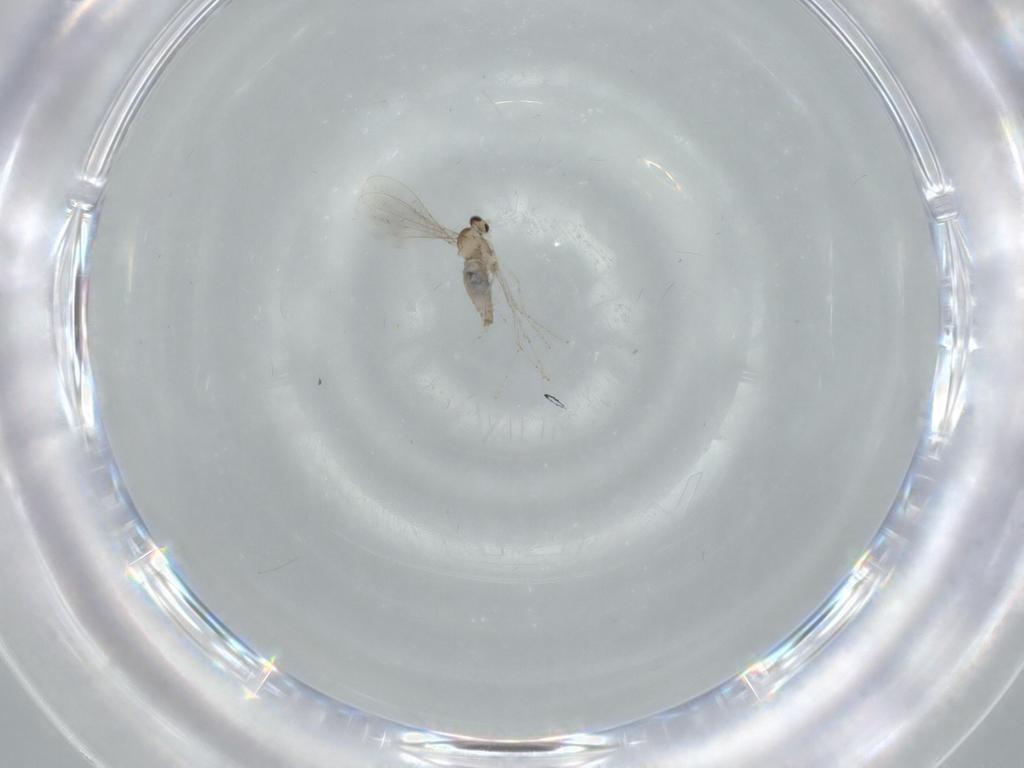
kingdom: Animalia
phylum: Arthropoda
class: Insecta
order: Diptera
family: Cecidomyiidae
